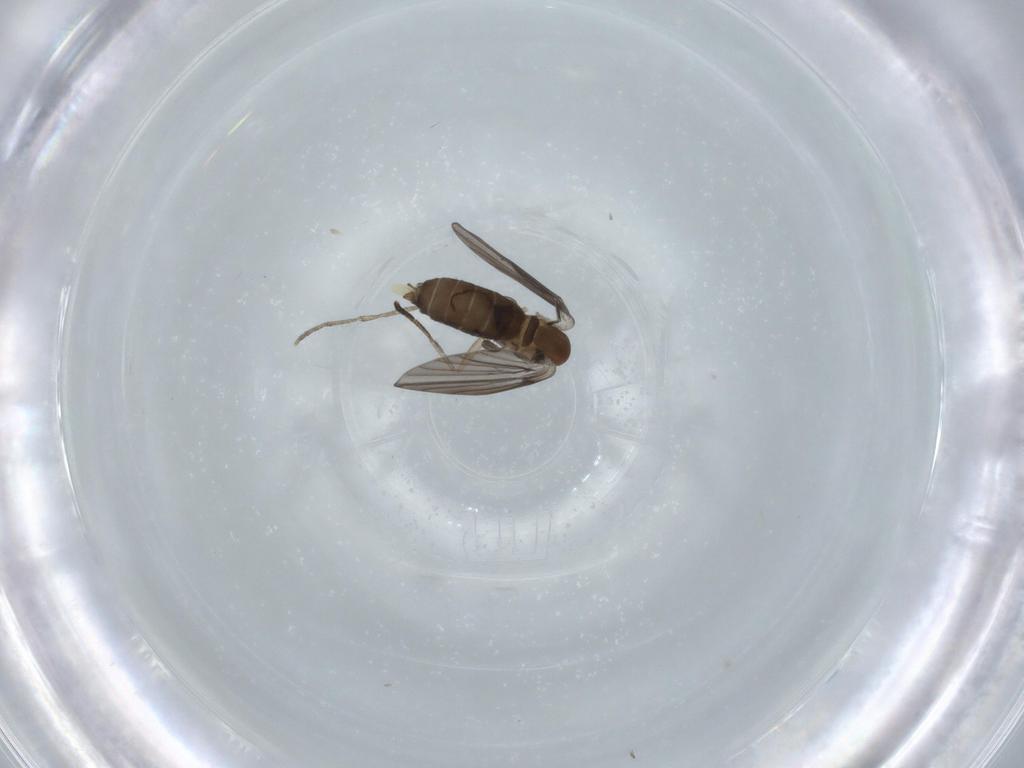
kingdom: Animalia
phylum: Arthropoda
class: Insecta
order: Diptera
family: Psychodidae
